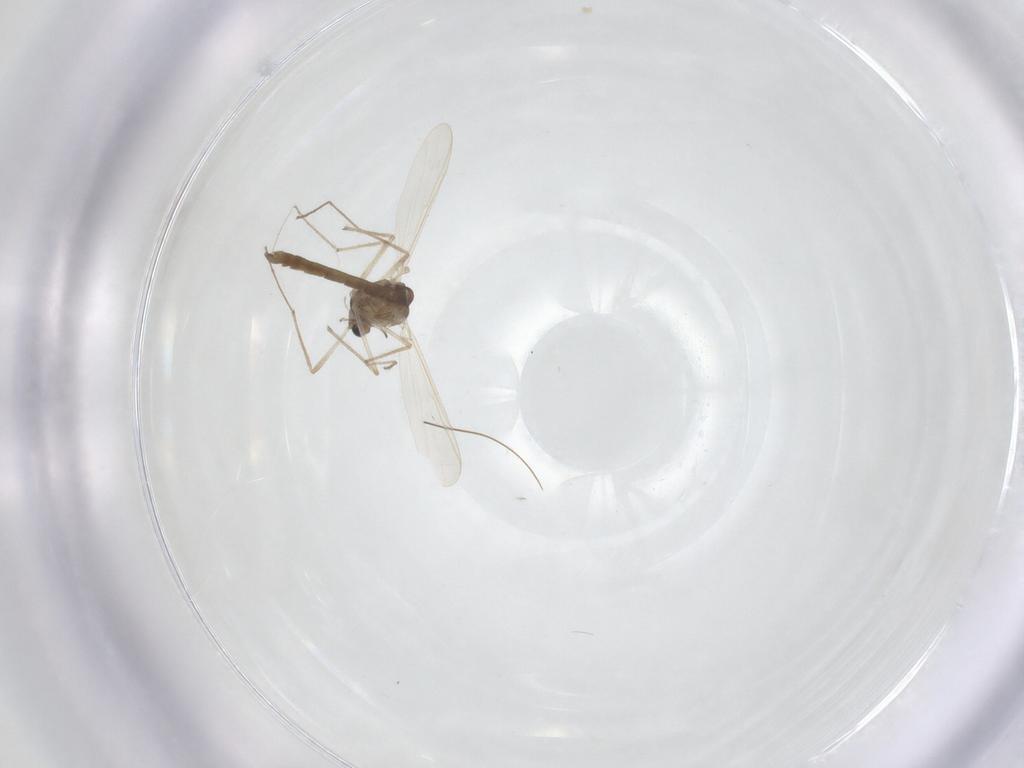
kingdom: Animalia
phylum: Arthropoda
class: Insecta
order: Diptera
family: Chironomidae
